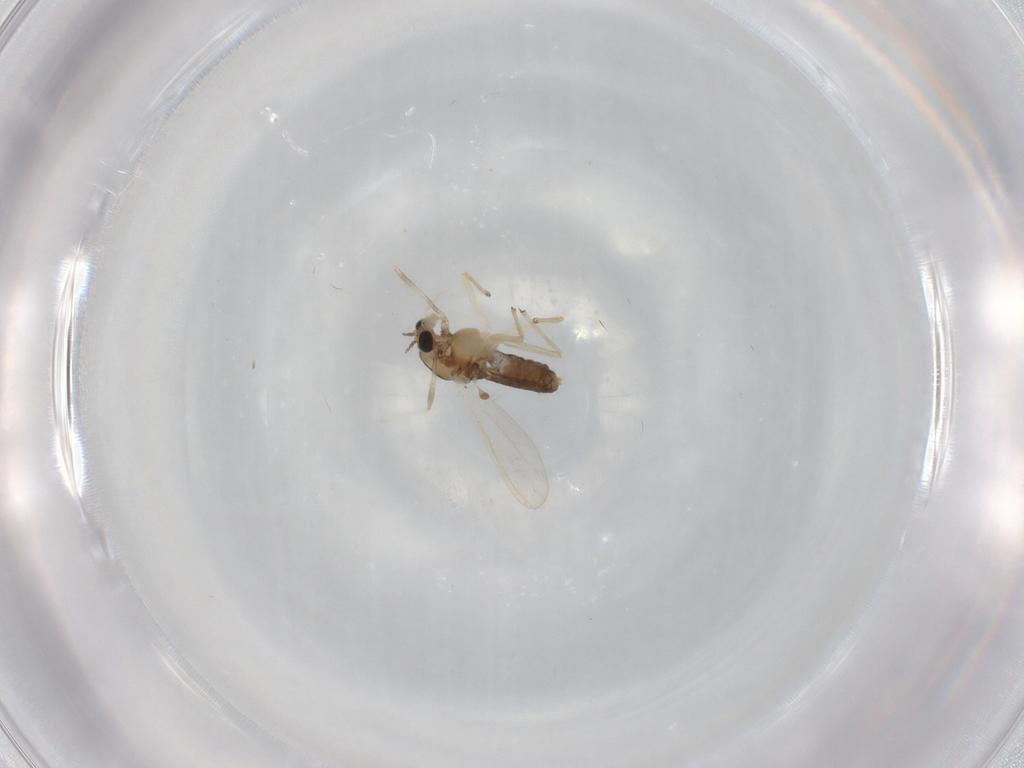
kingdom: Animalia
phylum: Arthropoda
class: Insecta
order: Diptera
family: Chironomidae
